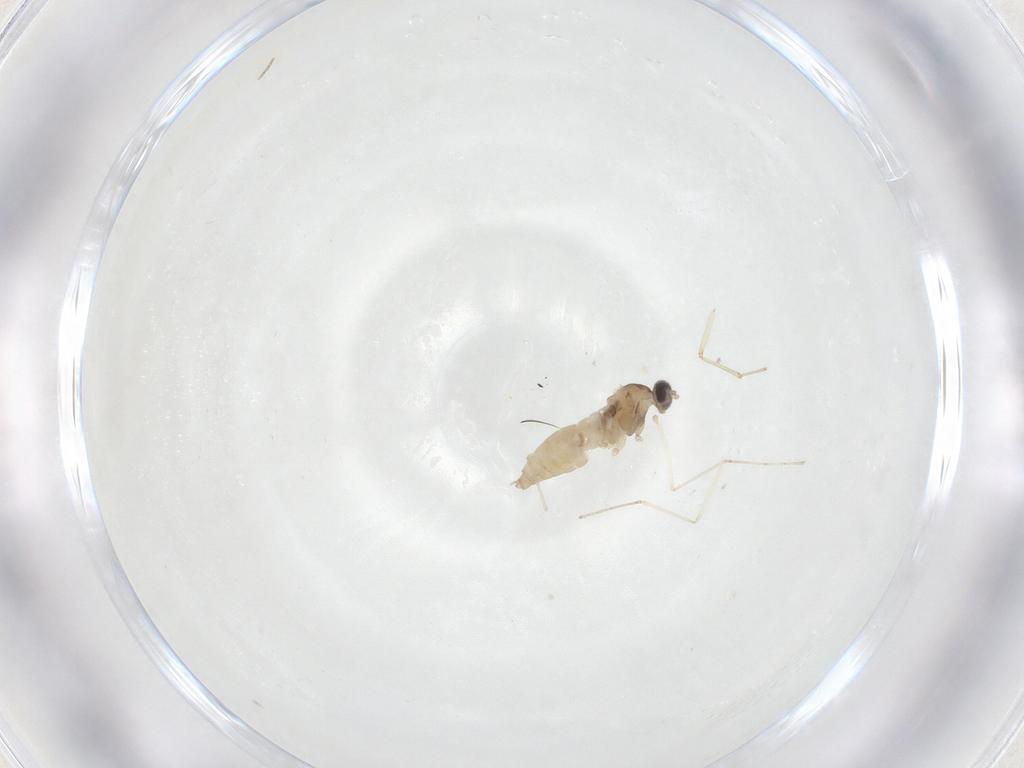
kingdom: Animalia
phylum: Arthropoda
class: Insecta
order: Diptera
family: Cecidomyiidae
